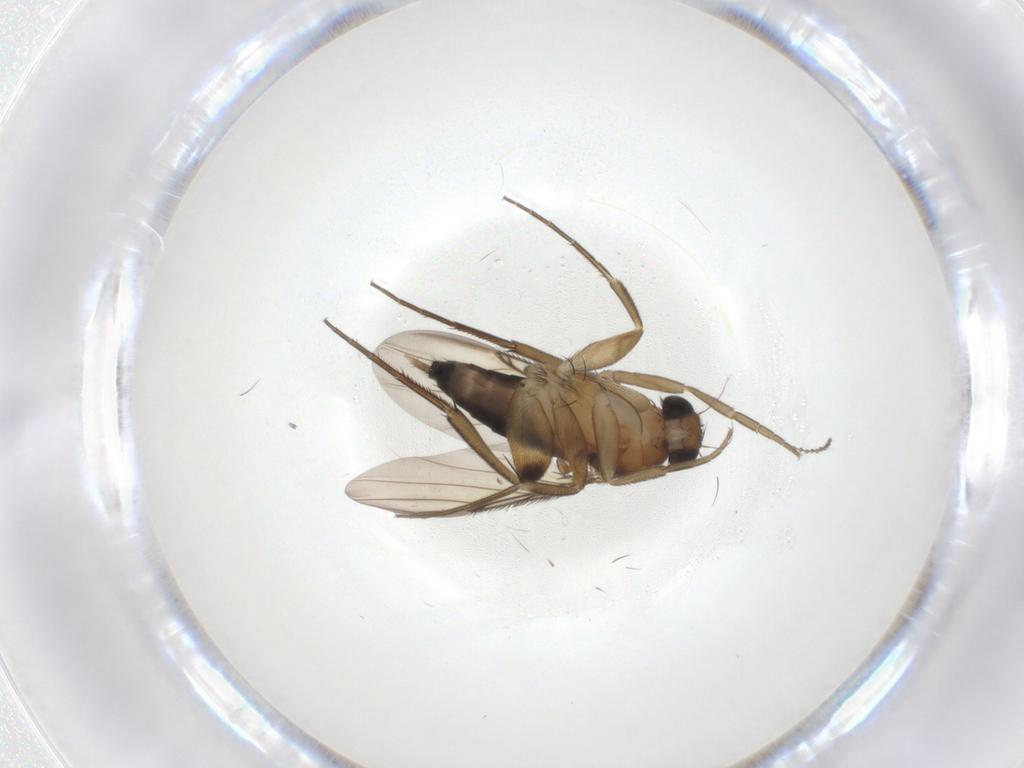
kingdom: Animalia
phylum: Arthropoda
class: Insecta
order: Diptera
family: Phoridae
